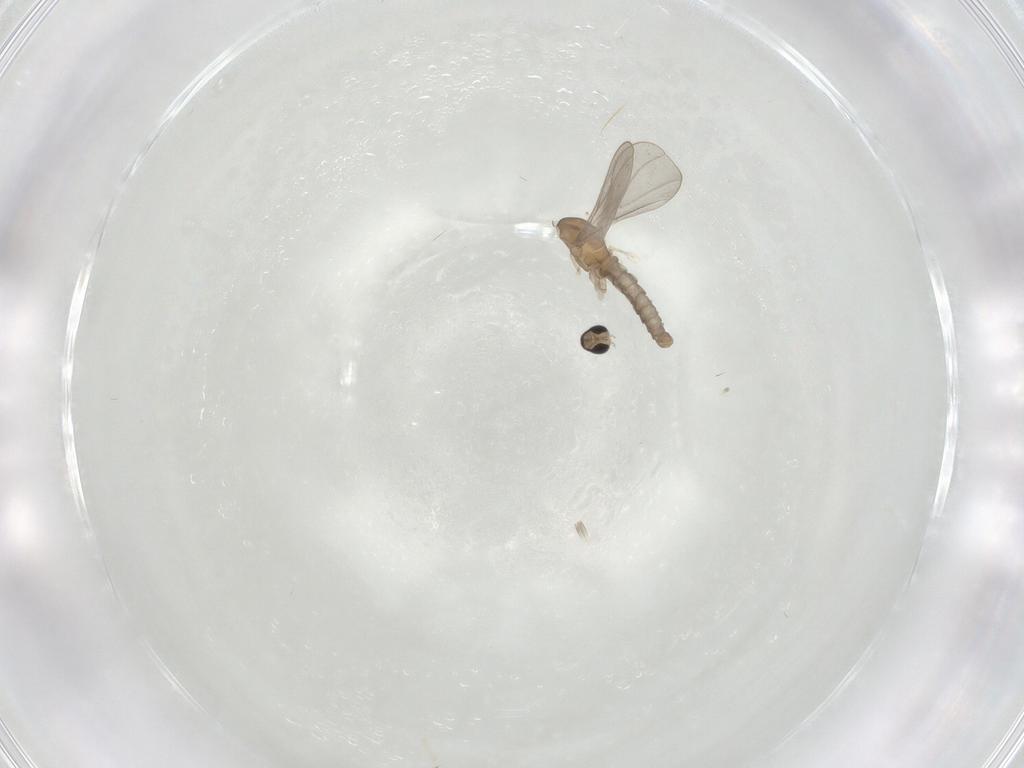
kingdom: Animalia
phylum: Arthropoda
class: Insecta
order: Diptera
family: Cecidomyiidae
